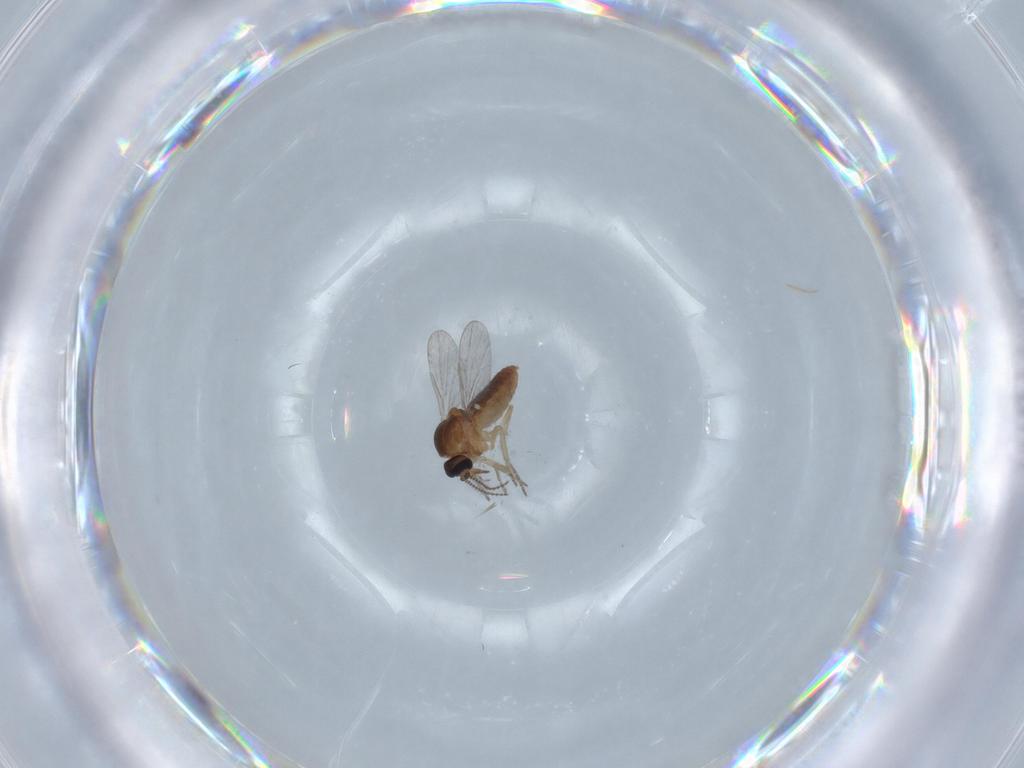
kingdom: Animalia
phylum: Arthropoda
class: Insecta
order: Diptera
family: Ceratopogonidae
